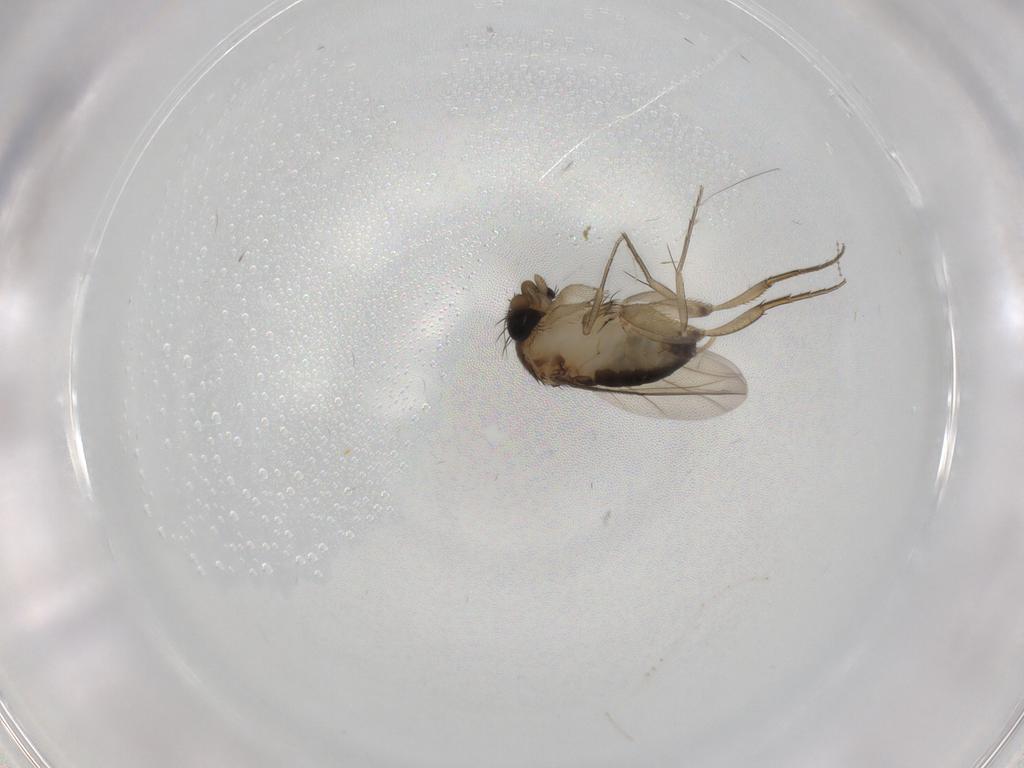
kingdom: Animalia
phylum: Arthropoda
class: Insecta
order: Diptera
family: Phoridae
